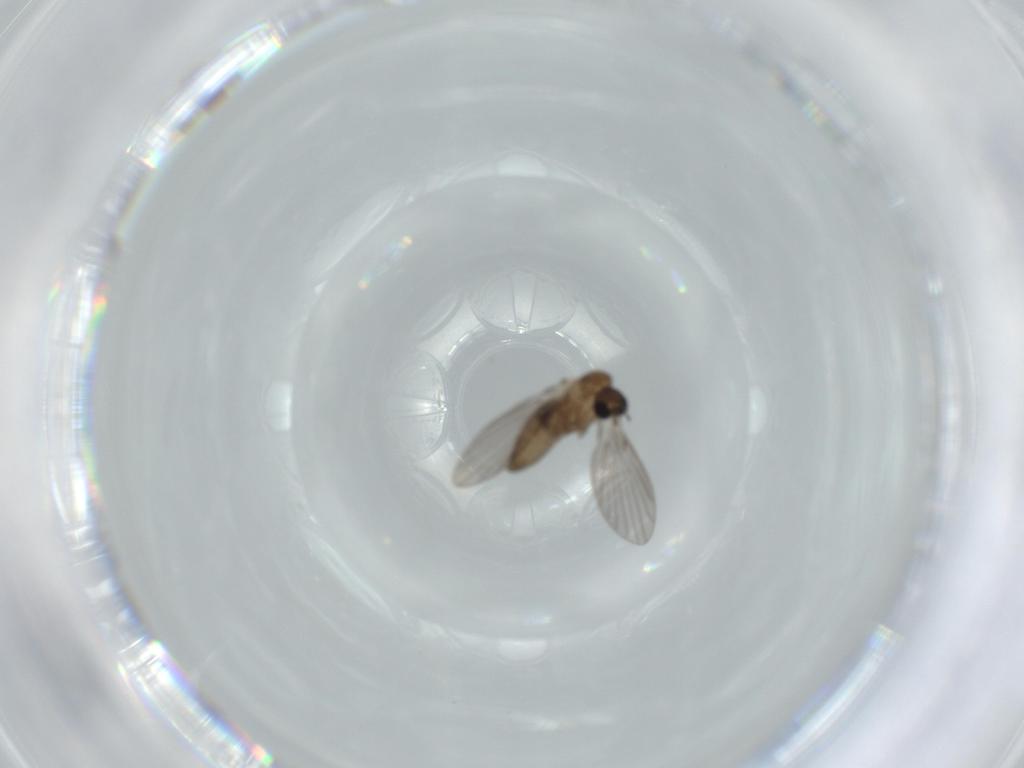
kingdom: Animalia
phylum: Arthropoda
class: Insecta
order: Diptera
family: Psychodidae
